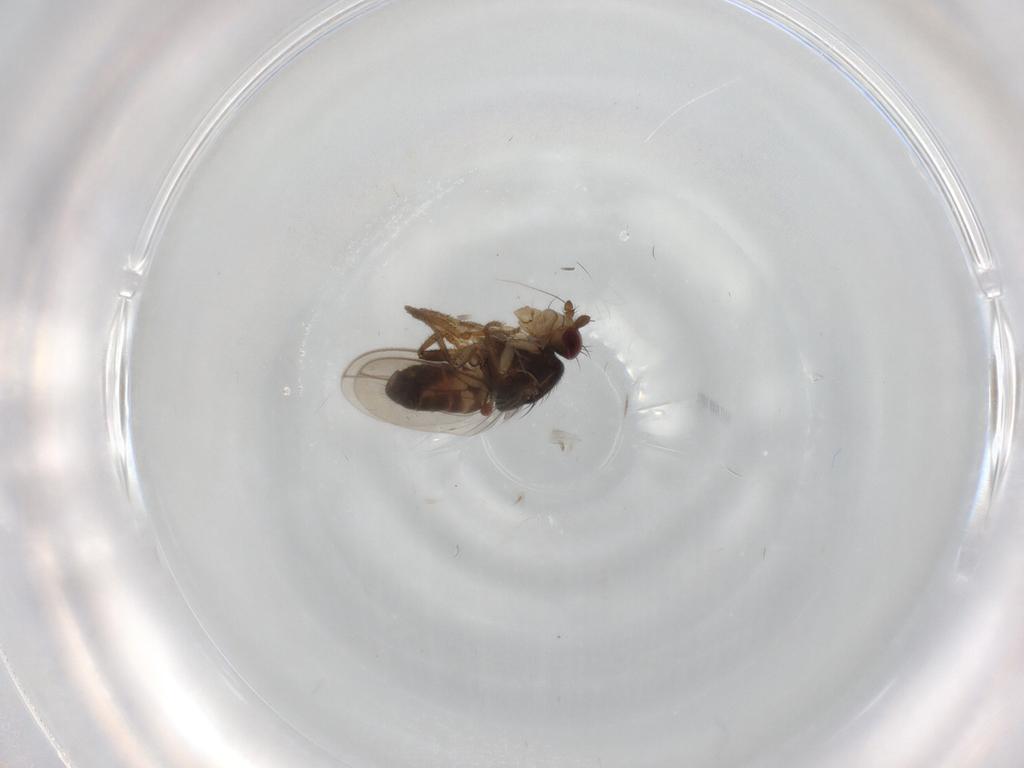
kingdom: Animalia
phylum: Arthropoda
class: Insecta
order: Diptera
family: Sphaeroceridae
